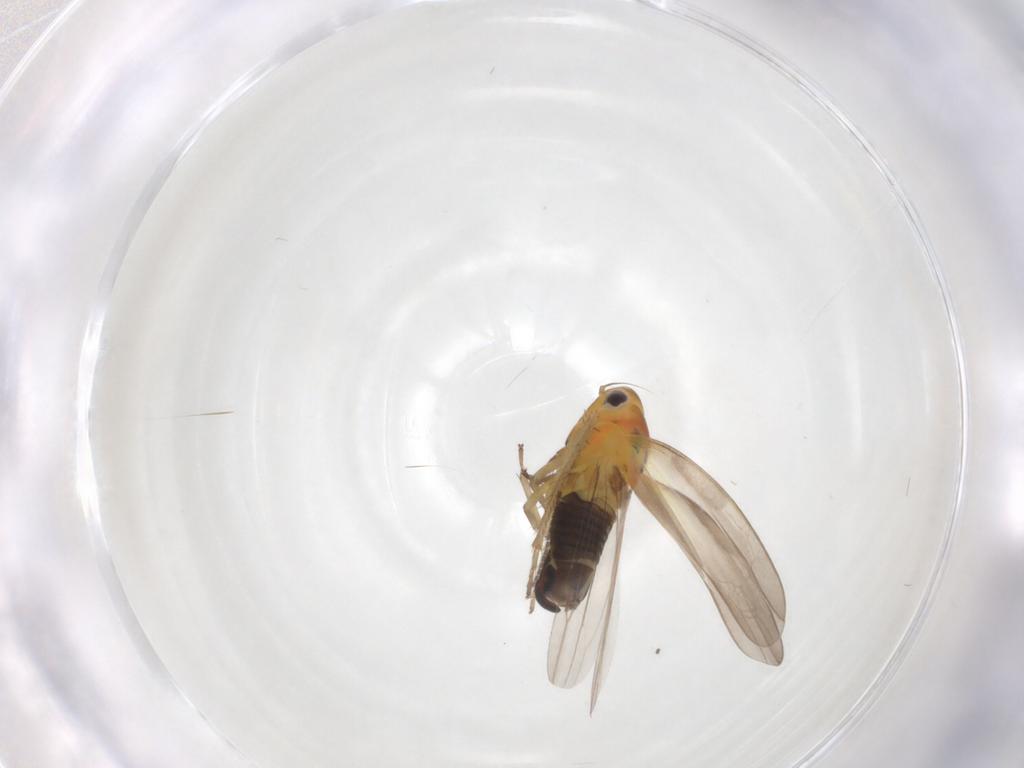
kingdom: Animalia
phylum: Arthropoda
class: Insecta
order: Hemiptera
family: Cicadellidae
